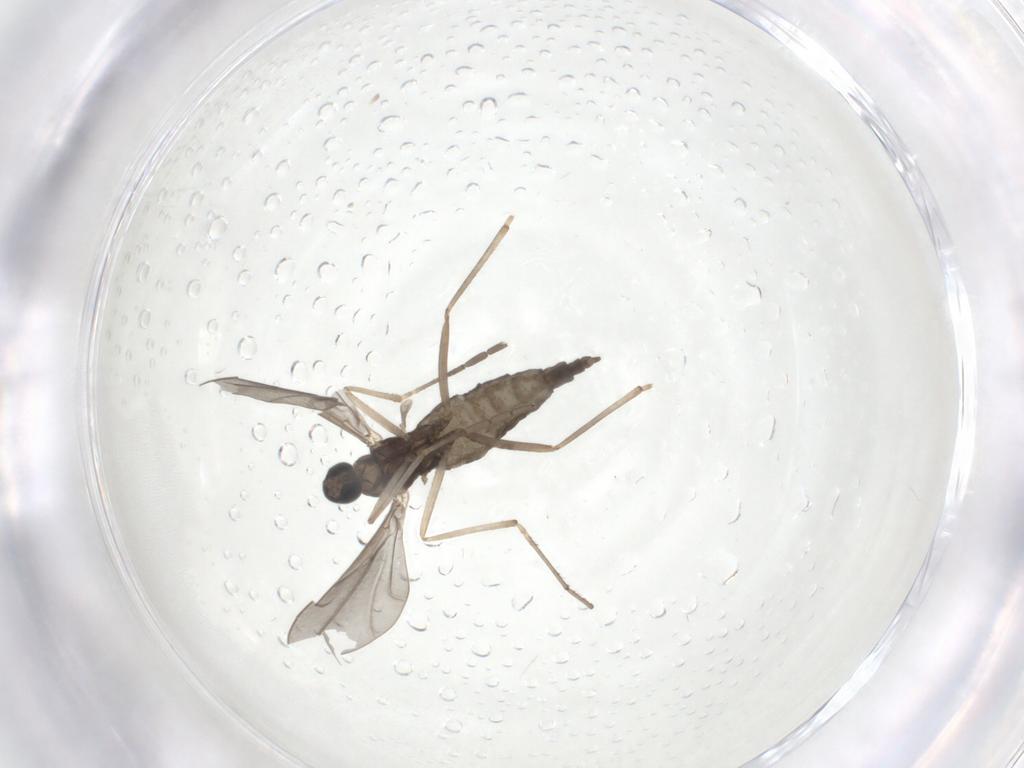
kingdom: Animalia
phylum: Arthropoda
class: Insecta
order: Diptera
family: Cecidomyiidae
